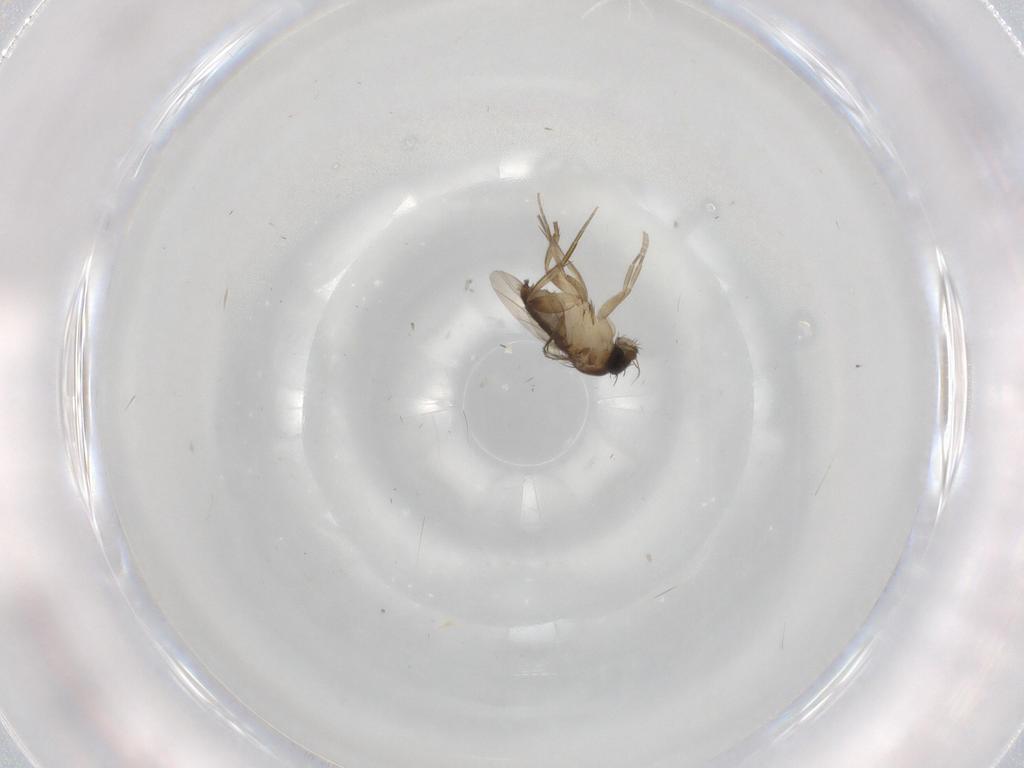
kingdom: Animalia
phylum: Arthropoda
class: Insecta
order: Diptera
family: Phoridae
